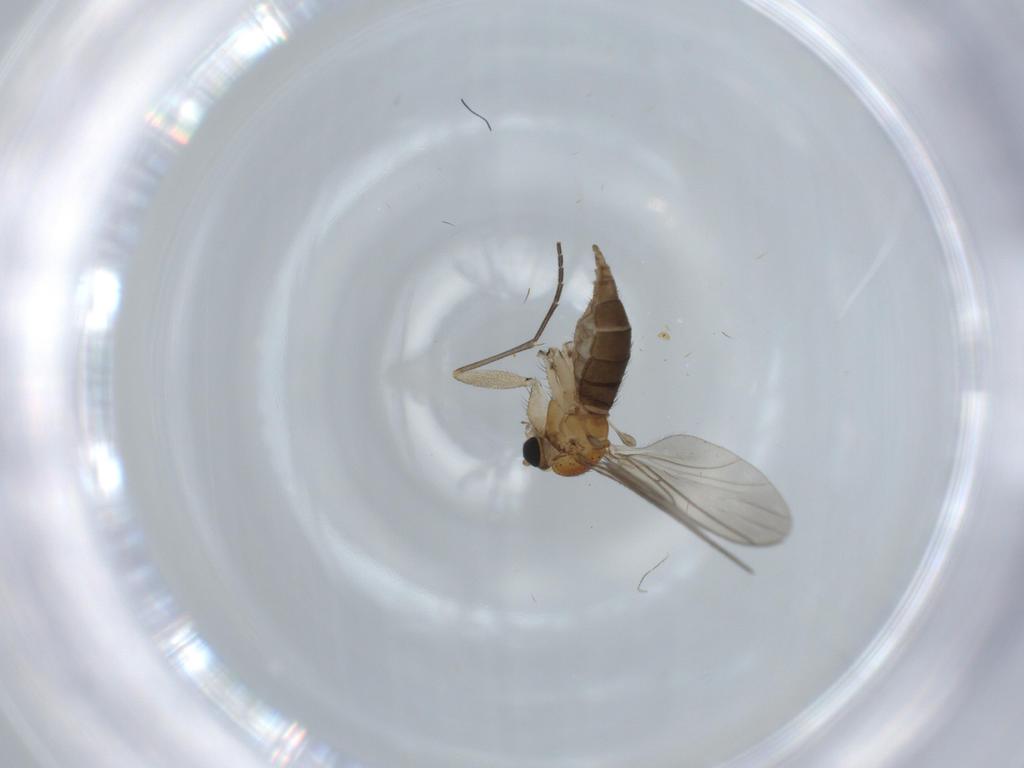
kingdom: Animalia
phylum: Arthropoda
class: Insecta
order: Diptera
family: Sciaridae
